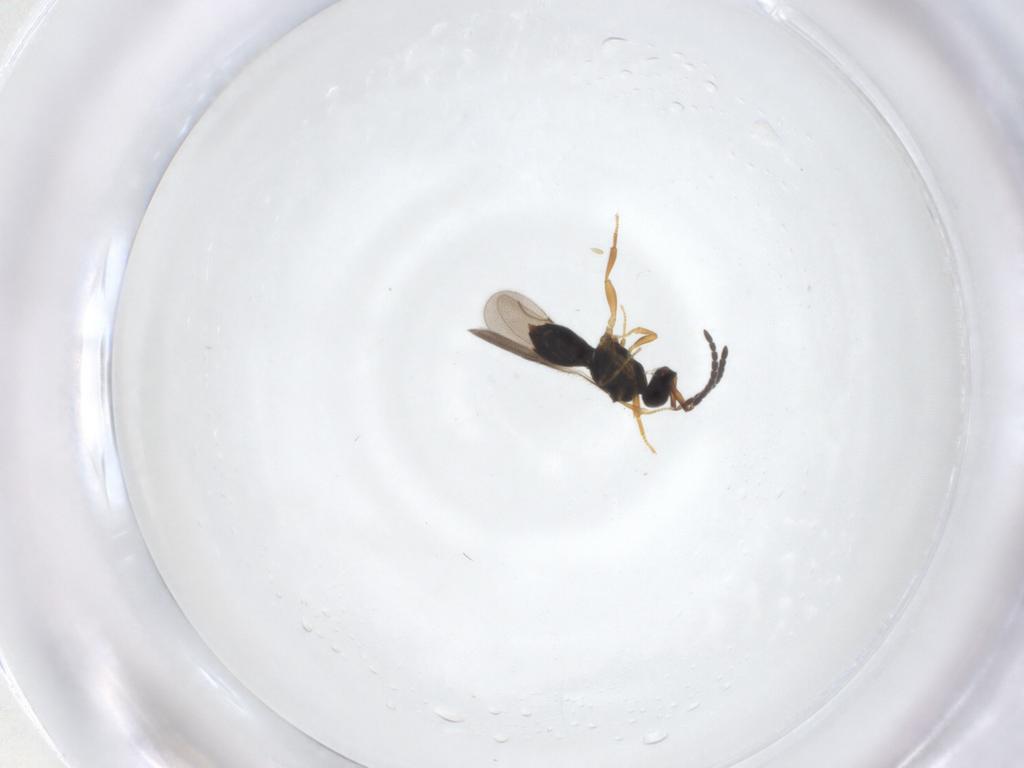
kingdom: Animalia
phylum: Arthropoda
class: Insecta
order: Hymenoptera
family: Ceraphronidae
